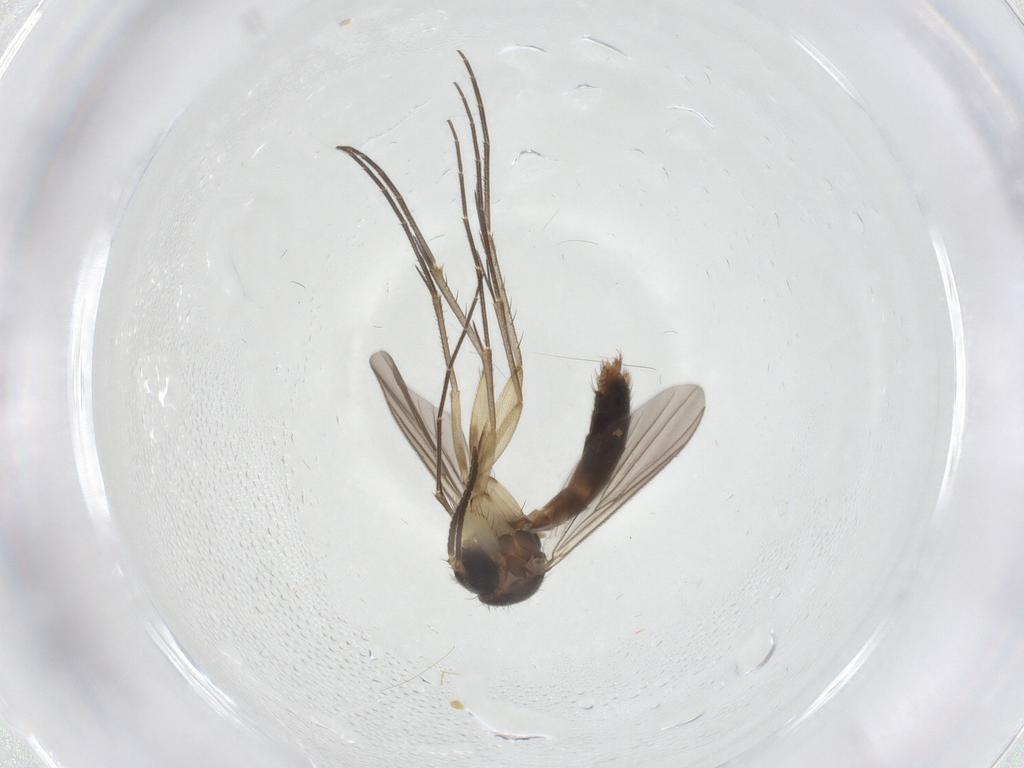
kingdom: Animalia
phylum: Arthropoda
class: Insecta
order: Diptera
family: Mycetophilidae
